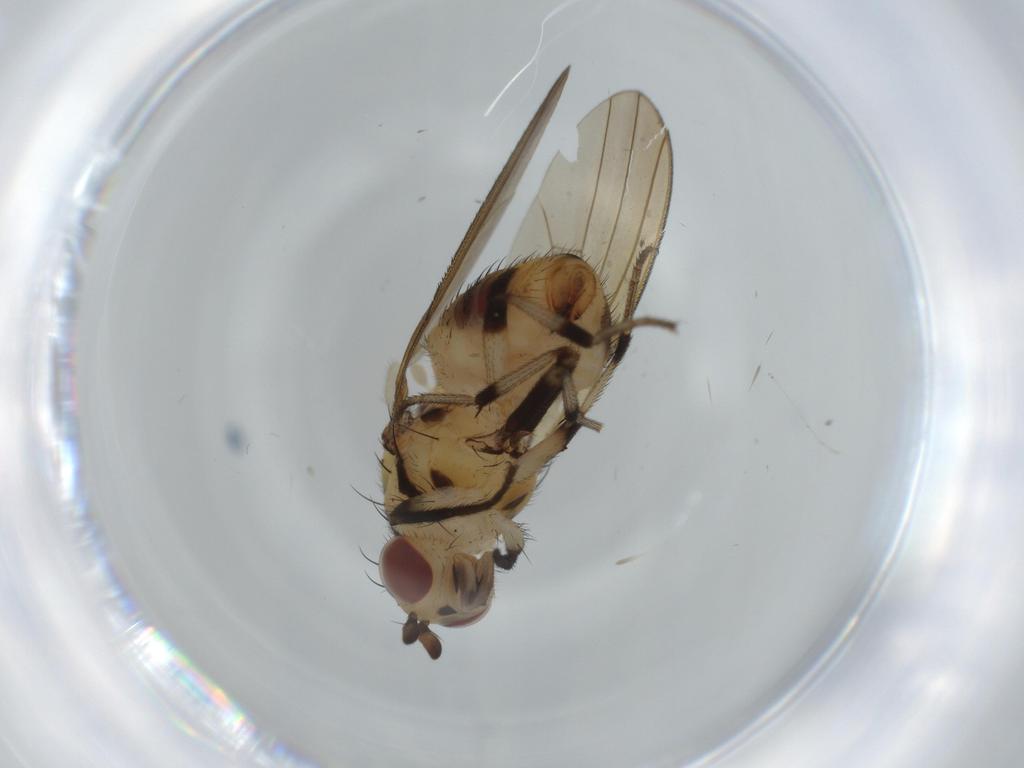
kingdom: Animalia
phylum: Arthropoda
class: Insecta
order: Diptera
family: Lauxaniidae
